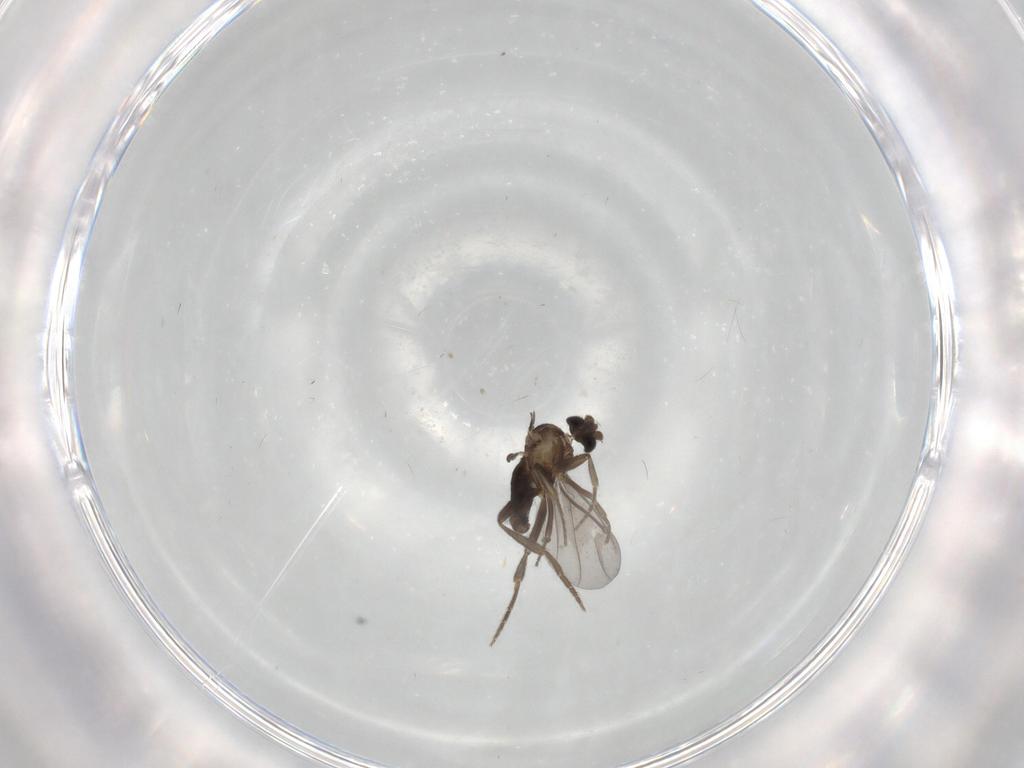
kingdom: Animalia
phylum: Arthropoda
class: Insecta
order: Diptera
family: Cecidomyiidae
